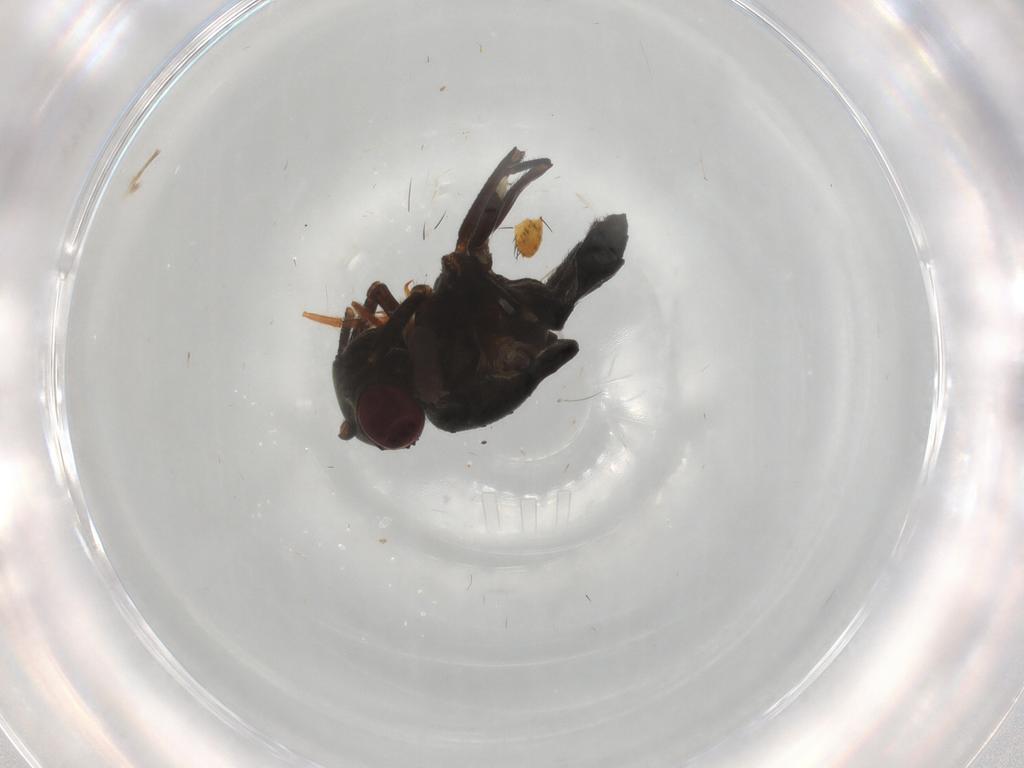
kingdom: Animalia
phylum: Arthropoda
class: Insecta
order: Diptera
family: Ephydridae
